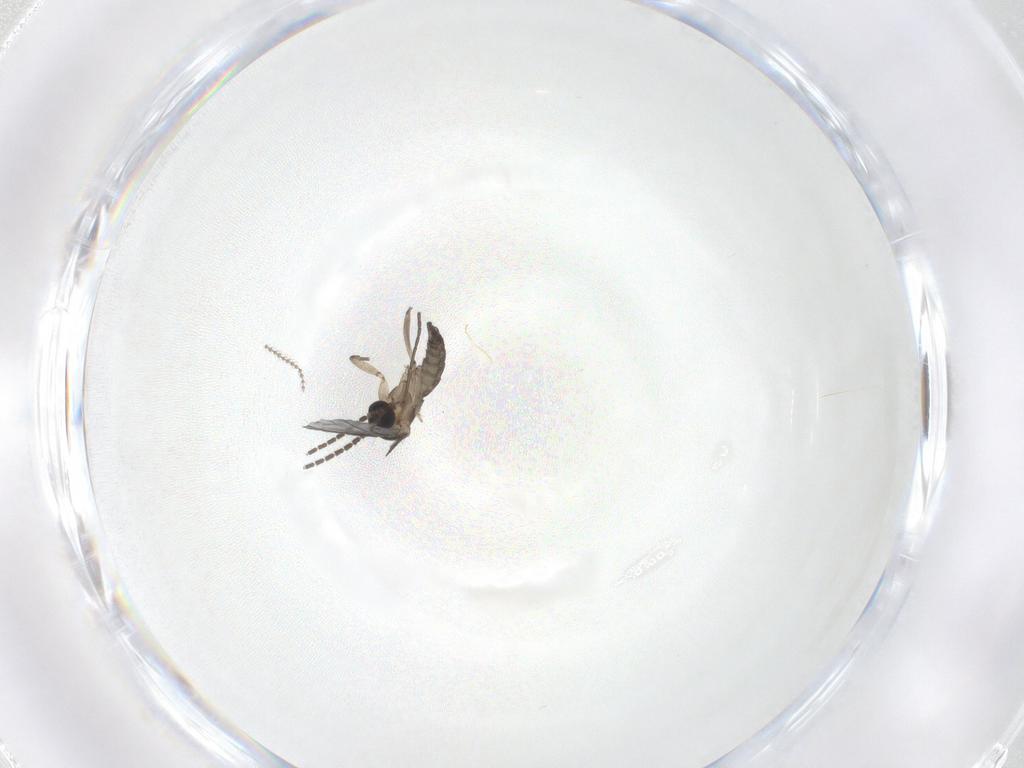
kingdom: Animalia
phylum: Arthropoda
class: Insecta
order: Diptera
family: Sciaridae
